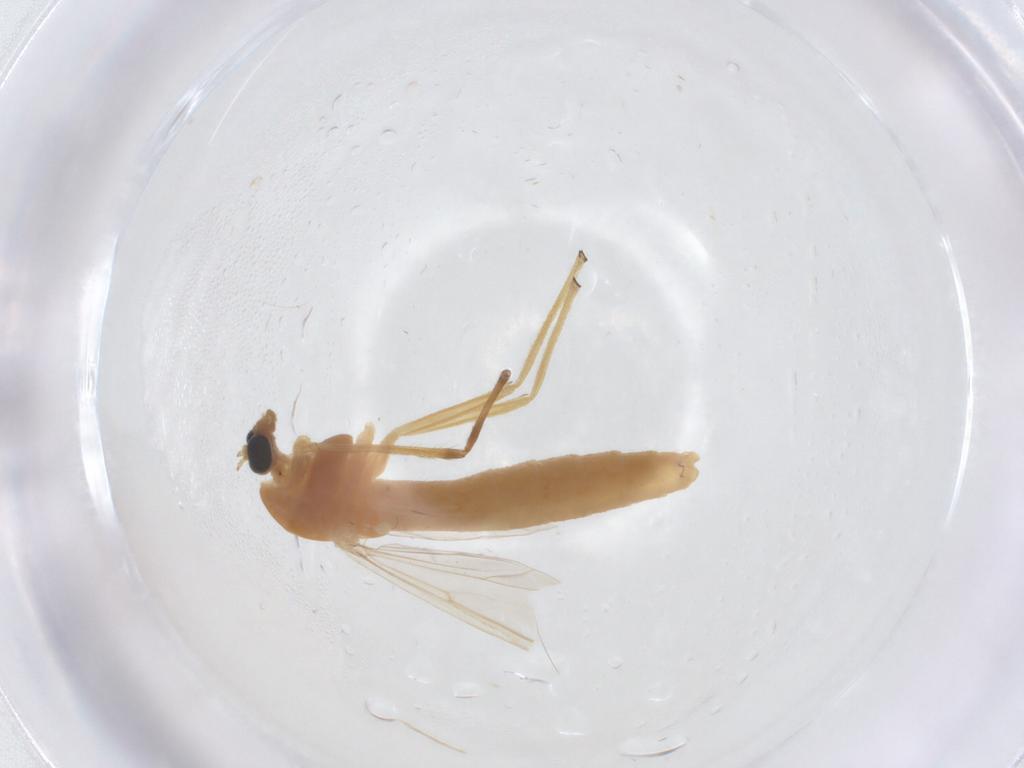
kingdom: Animalia
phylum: Arthropoda
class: Insecta
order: Diptera
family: Chironomidae
